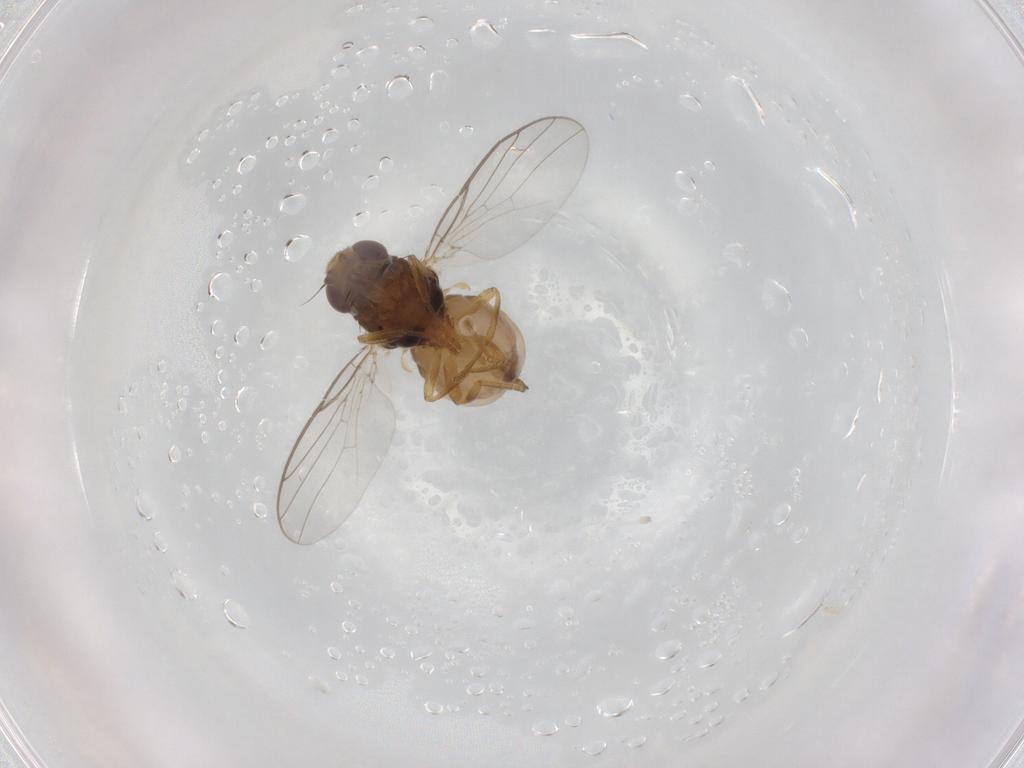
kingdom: Animalia
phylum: Arthropoda
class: Insecta
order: Diptera
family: Chloropidae
